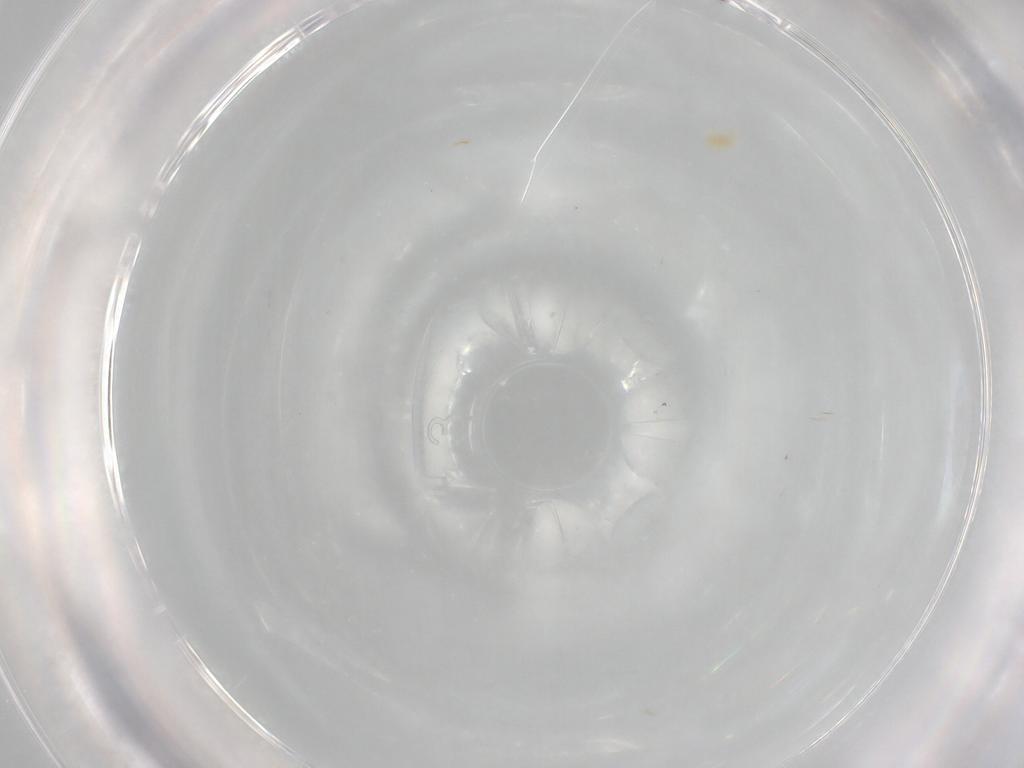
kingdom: Animalia
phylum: Arthropoda
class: Arachnida
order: Trombidiformes
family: Eupodidae
